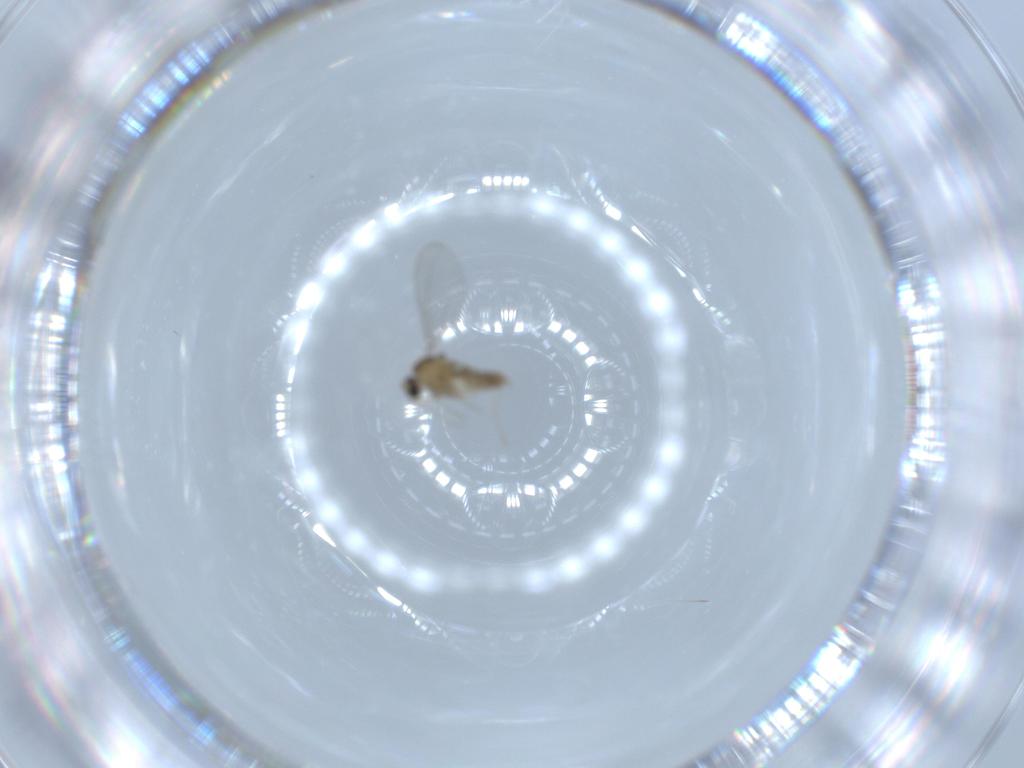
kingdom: Animalia
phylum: Arthropoda
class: Insecta
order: Diptera
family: Cecidomyiidae
